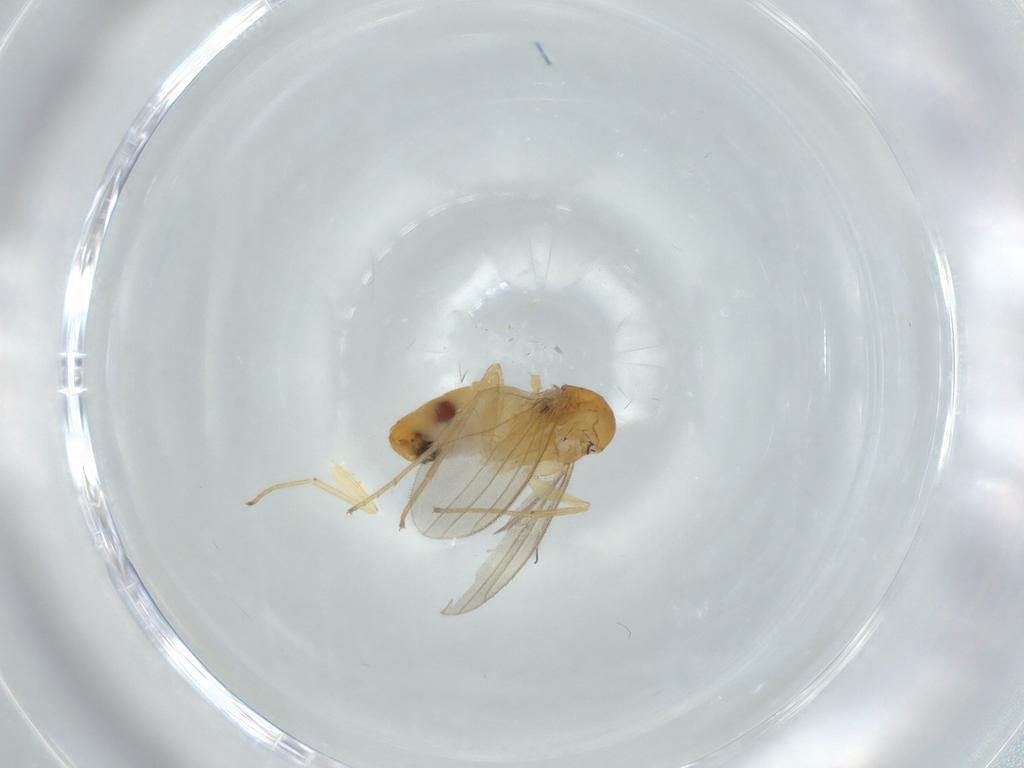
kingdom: Animalia
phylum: Arthropoda
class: Insecta
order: Diptera
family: Dolichopodidae
